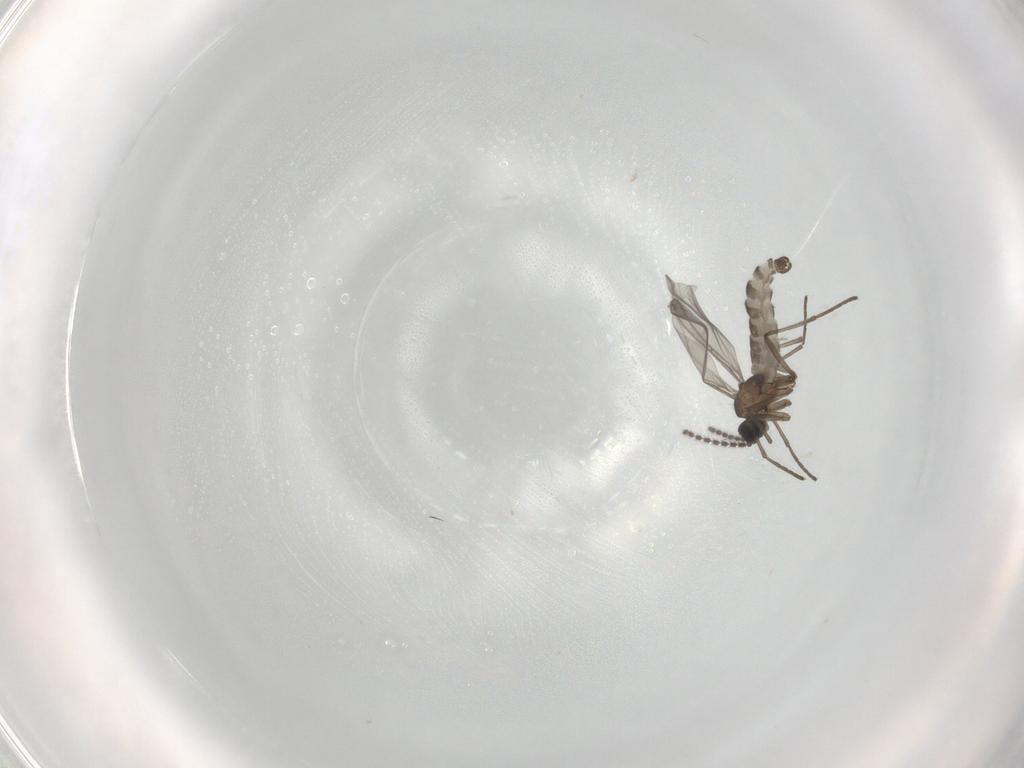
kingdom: Animalia
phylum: Arthropoda
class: Insecta
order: Diptera
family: Chironomidae
